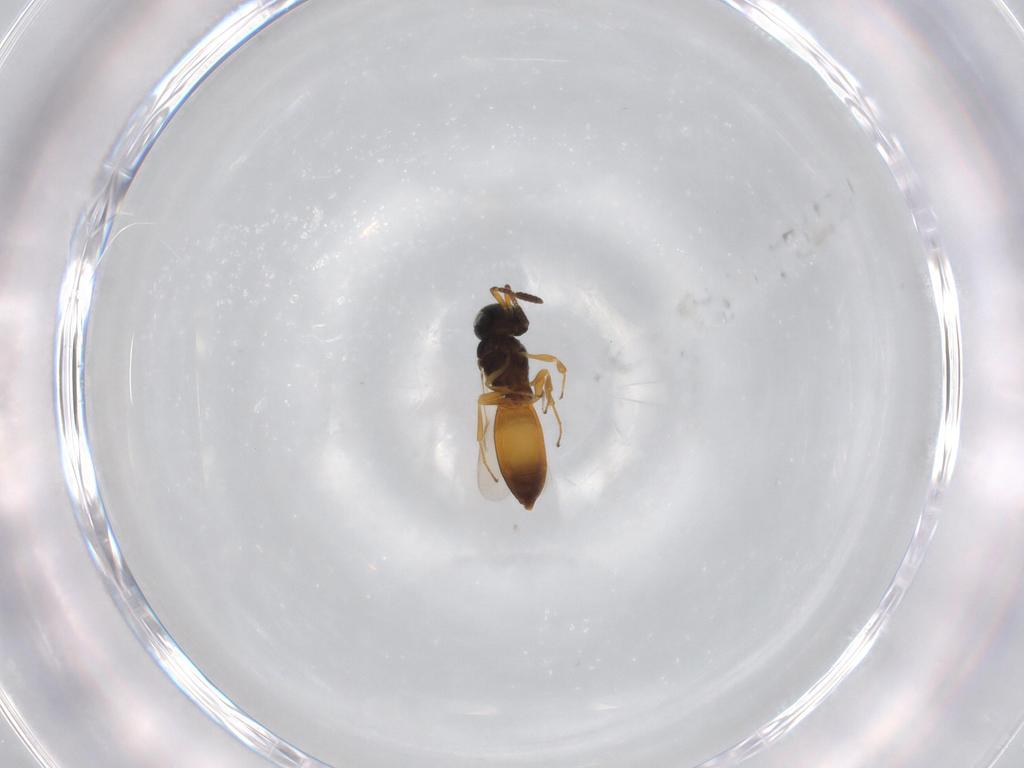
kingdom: Animalia
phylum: Arthropoda
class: Insecta
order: Hymenoptera
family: Scelionidae
